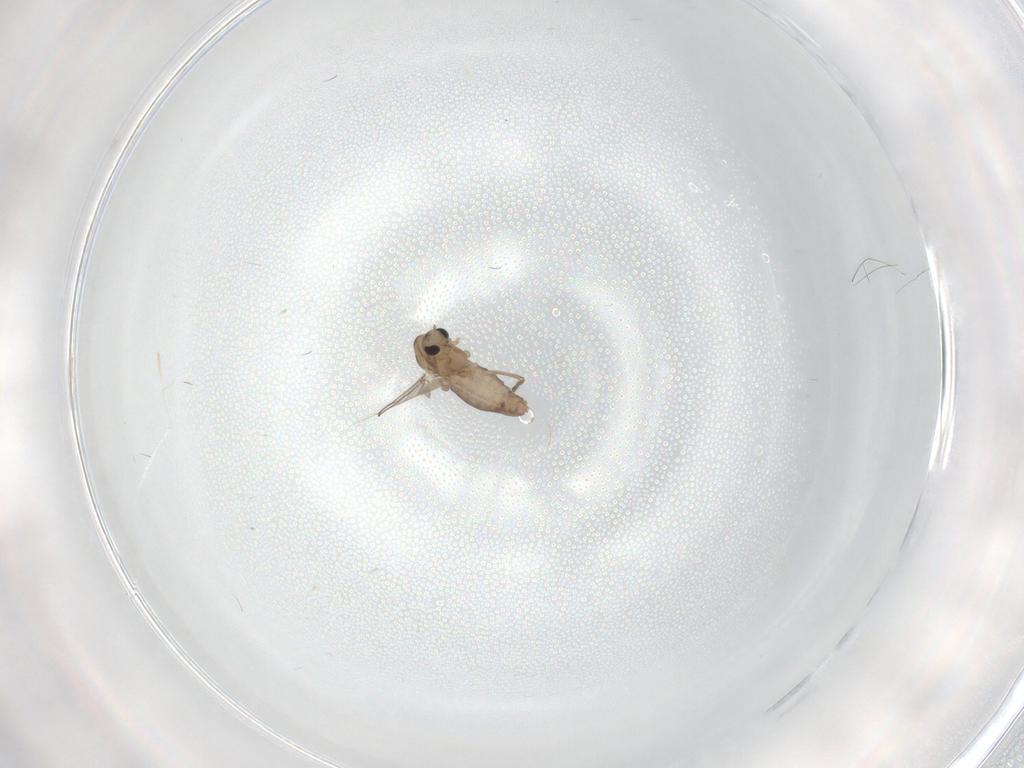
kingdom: Animalia
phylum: Arthropoda
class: Insecta
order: Diptera
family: Chironomidae
